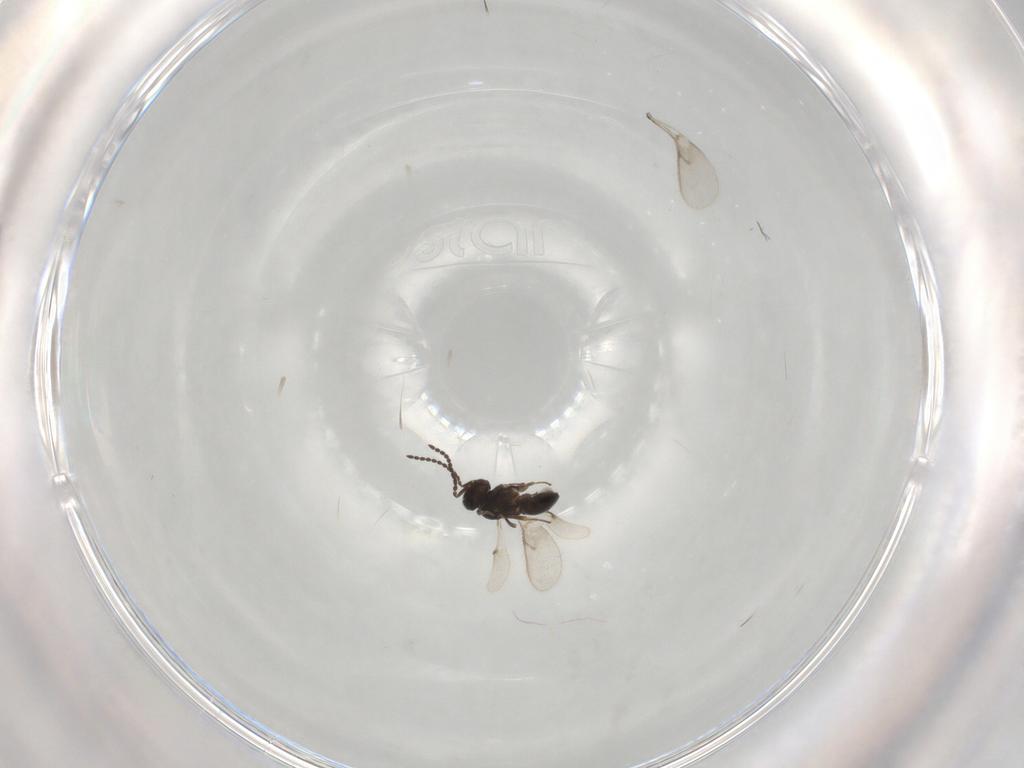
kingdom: Animalia
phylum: Arthropoda
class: Insecta
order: Hymenoptera
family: Scelionidae
